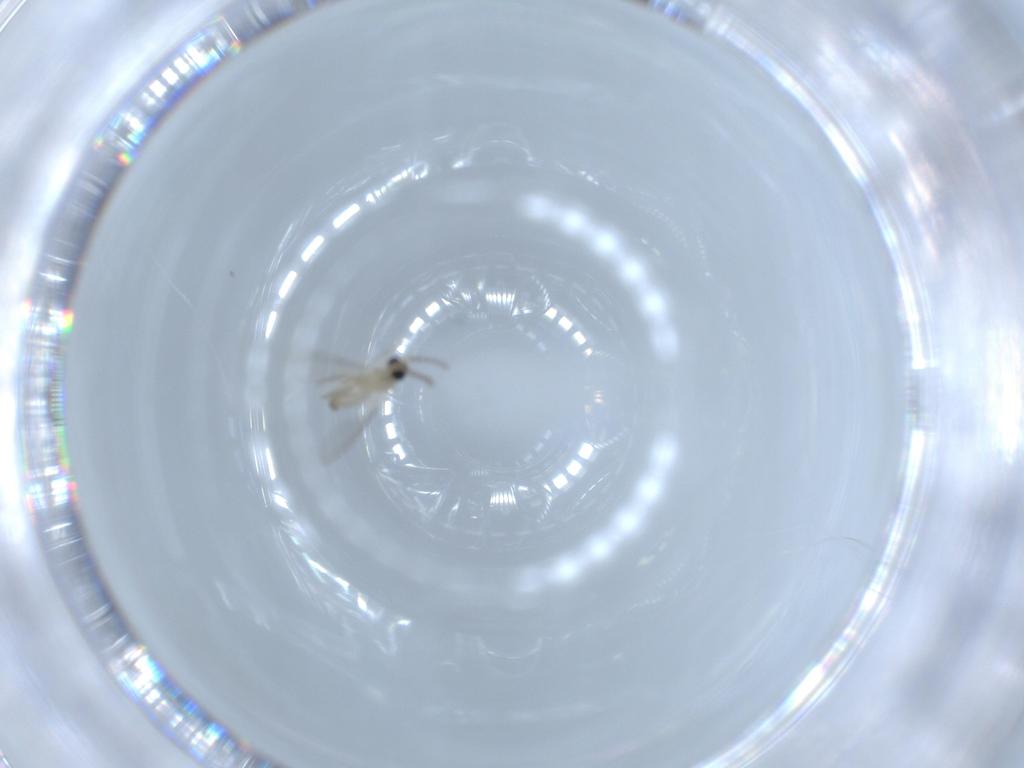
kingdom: Animalia
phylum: Arthropoda
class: Insecta
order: Diptera
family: Cecidomyiidae
